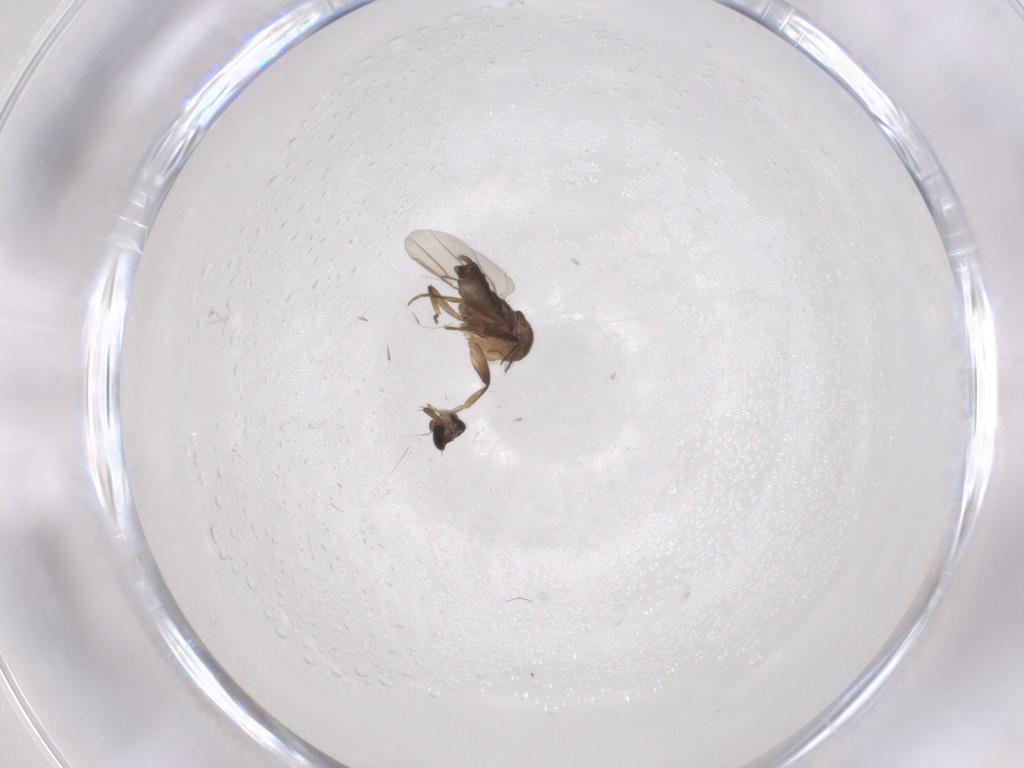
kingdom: Animalia
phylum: Arthropoda
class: Insecta
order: Diptera
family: Phoridae
